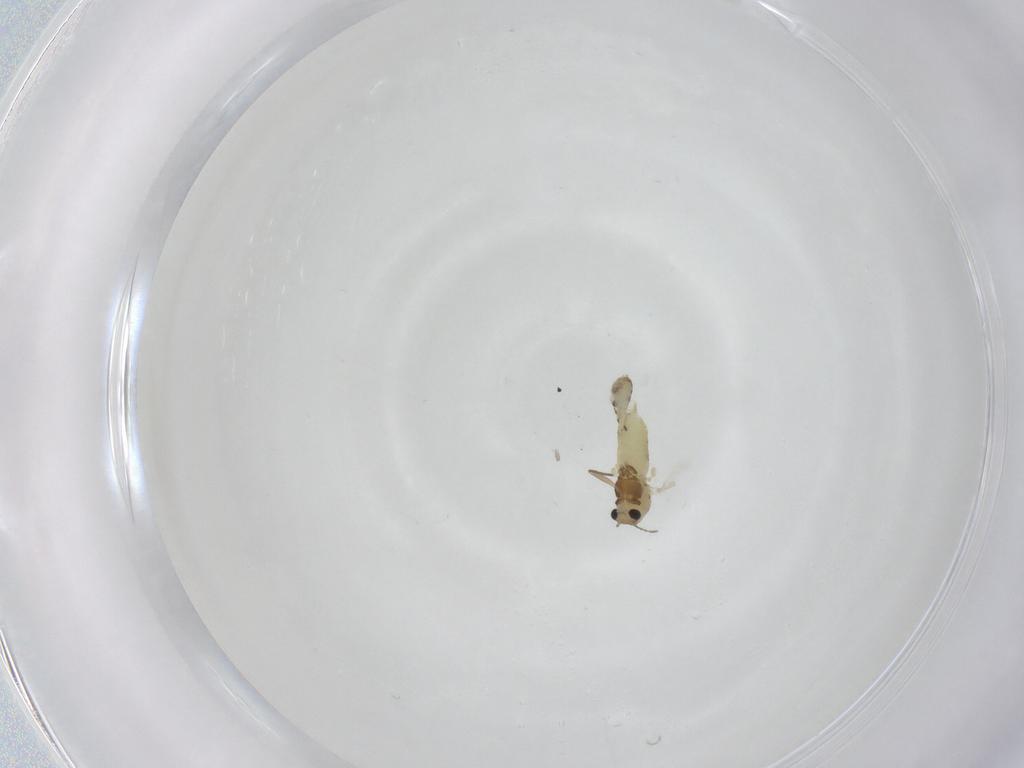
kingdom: Animalia
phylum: Arthropoda
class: Insecta
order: Diptera
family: Chironomidae
